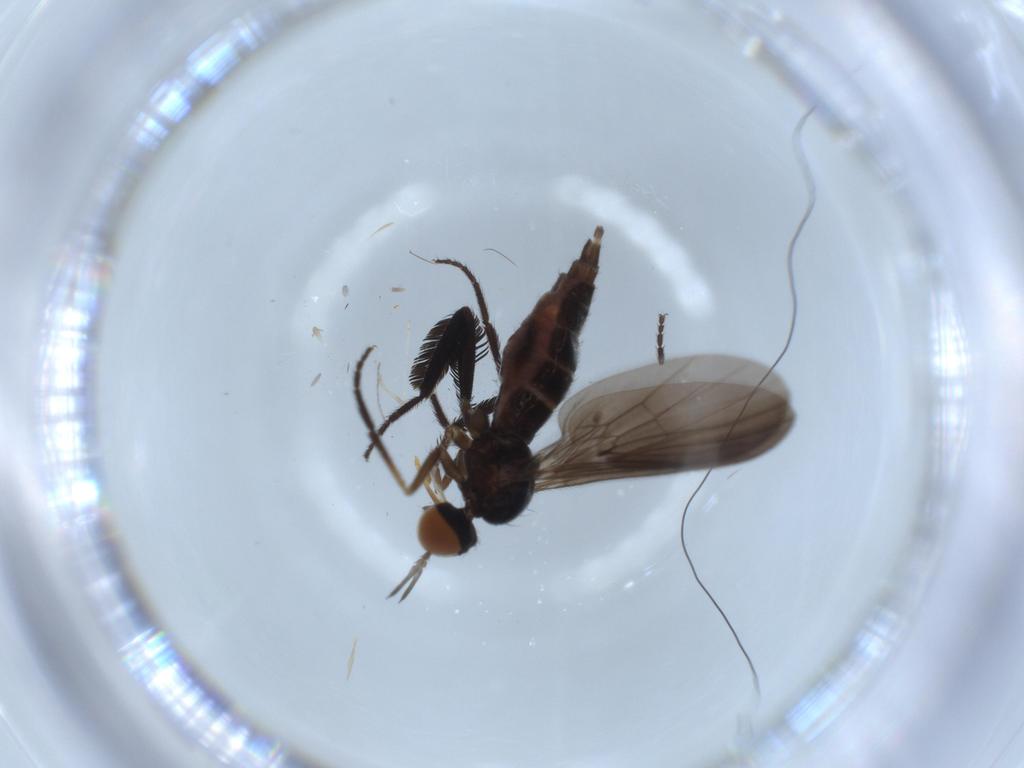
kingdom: Animalia
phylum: Arthropoda
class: Insecta
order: Diptera
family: Empididae
